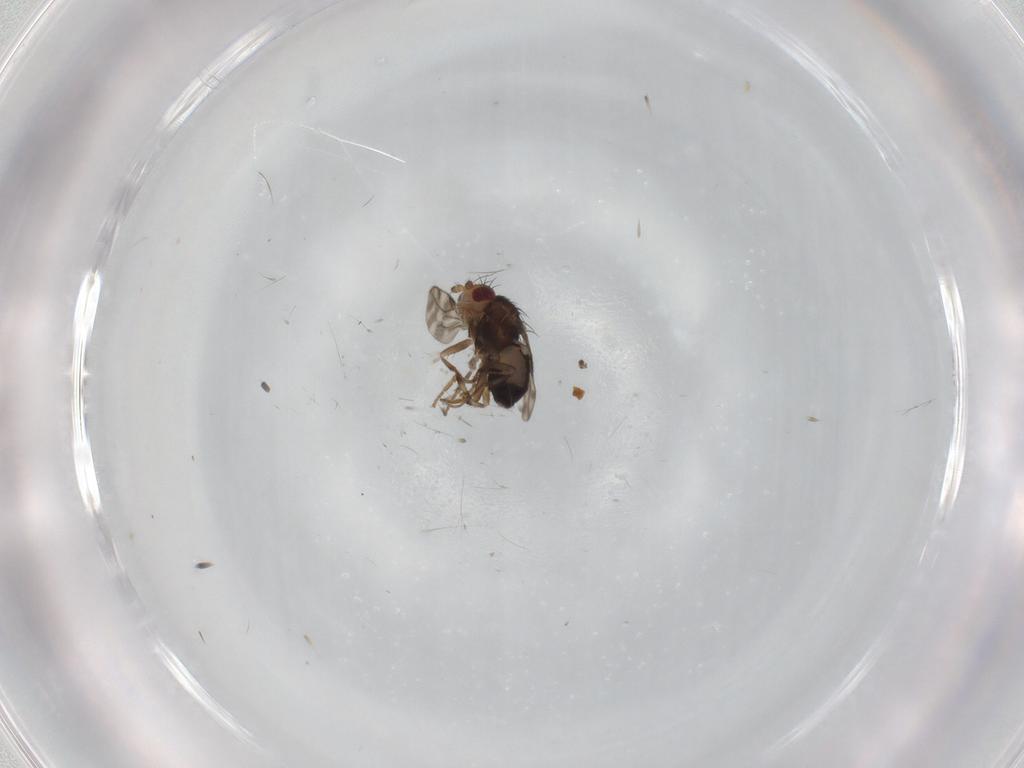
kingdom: Animalia
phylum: Arthropoda
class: Insecta
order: Diptera
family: Sphaeroceridae
